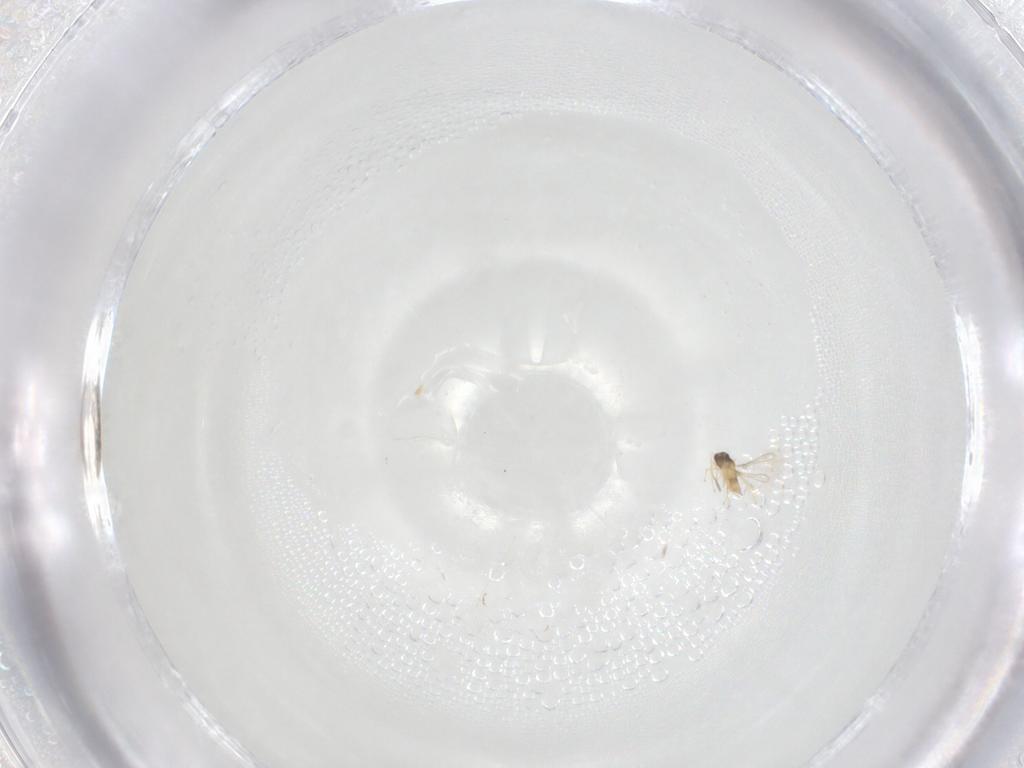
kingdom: Animalia
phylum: Arthropoda
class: Insecta
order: Hymenoptera
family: Mymaridae
